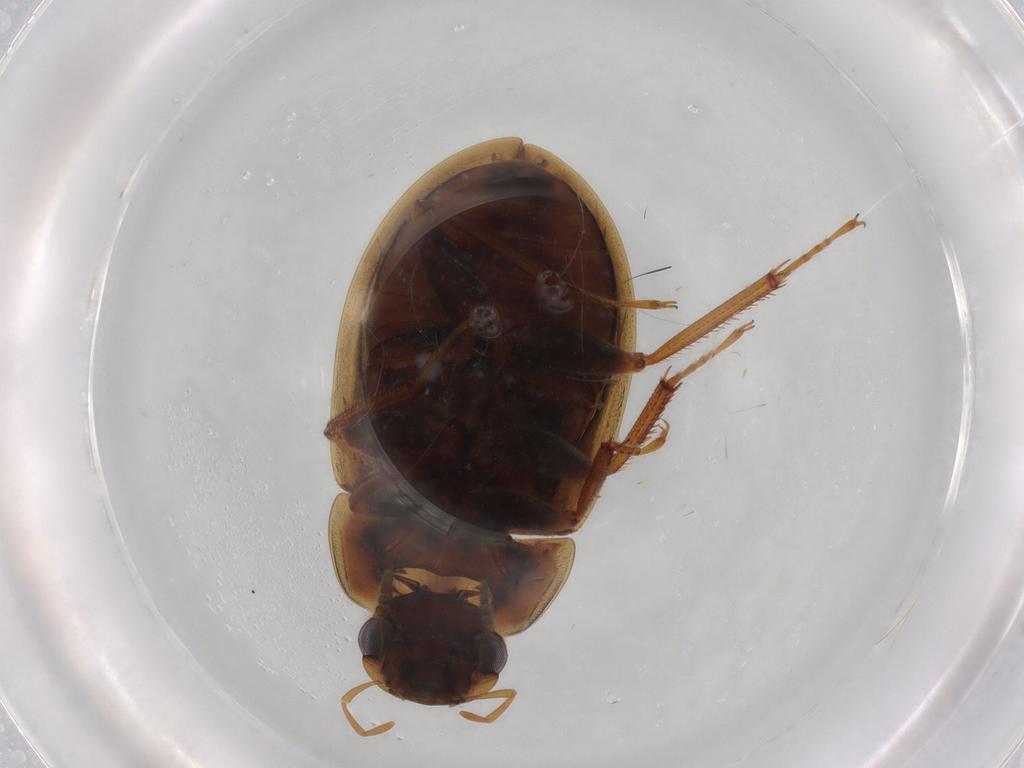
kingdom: Animalia
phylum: Arthropoda
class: Insecta
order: Coleoptera
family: Hydrophilidae
